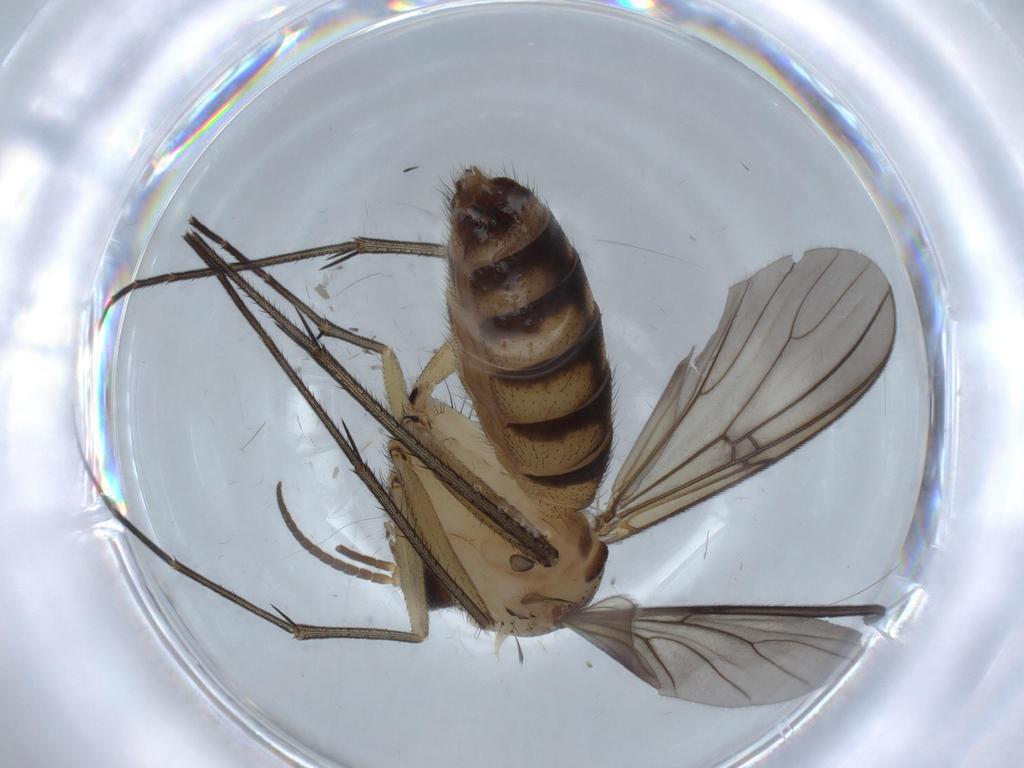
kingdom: Animalia
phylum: Arthropoda
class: Insecta
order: Diptera
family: Mycetophilidae
